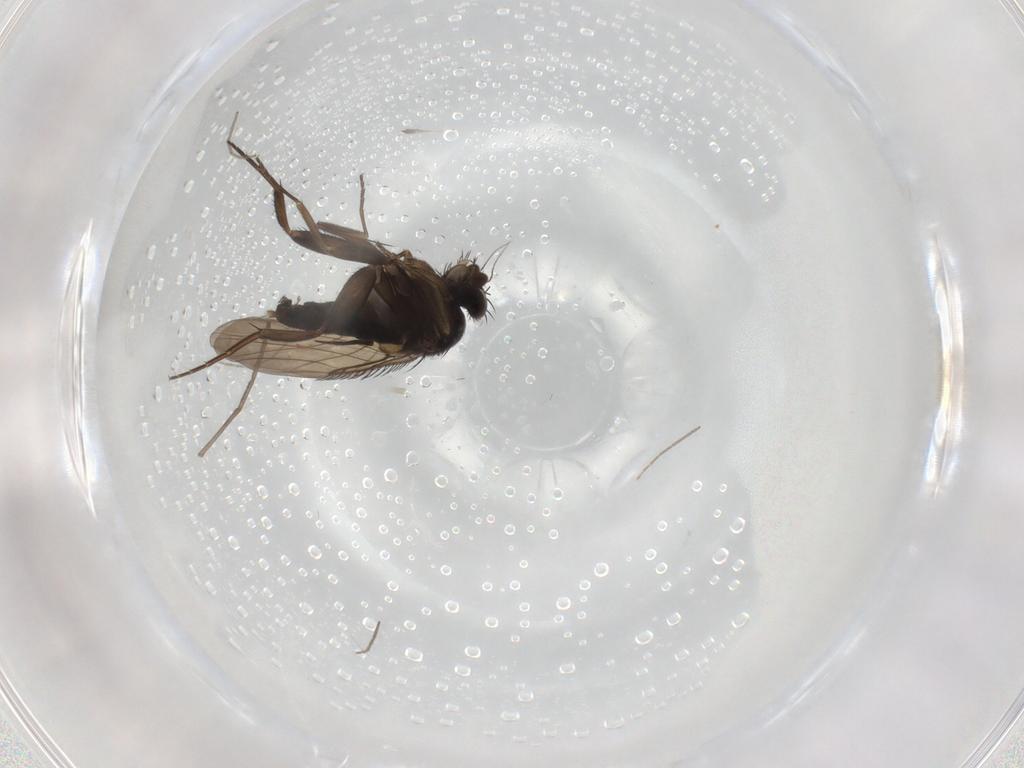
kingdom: Animalia
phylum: Arthropoda
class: Insecta
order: Diptera
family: Phoridae
